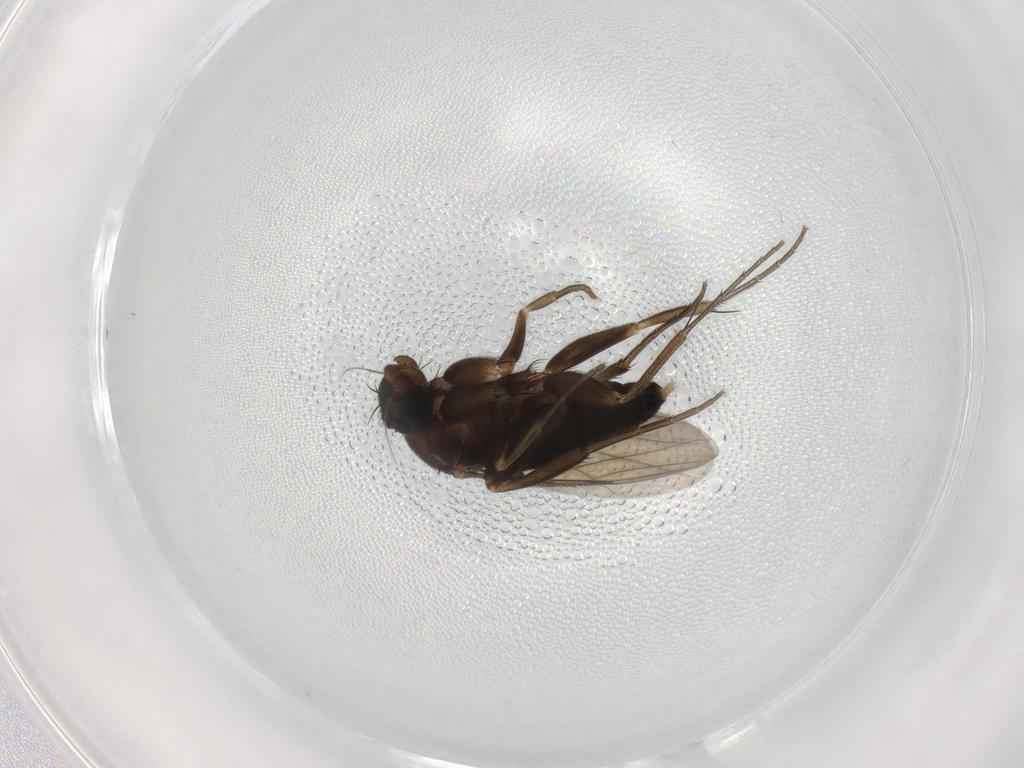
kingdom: Animalia
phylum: Arthropoda
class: Insecta
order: Diptera
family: Phoridae
